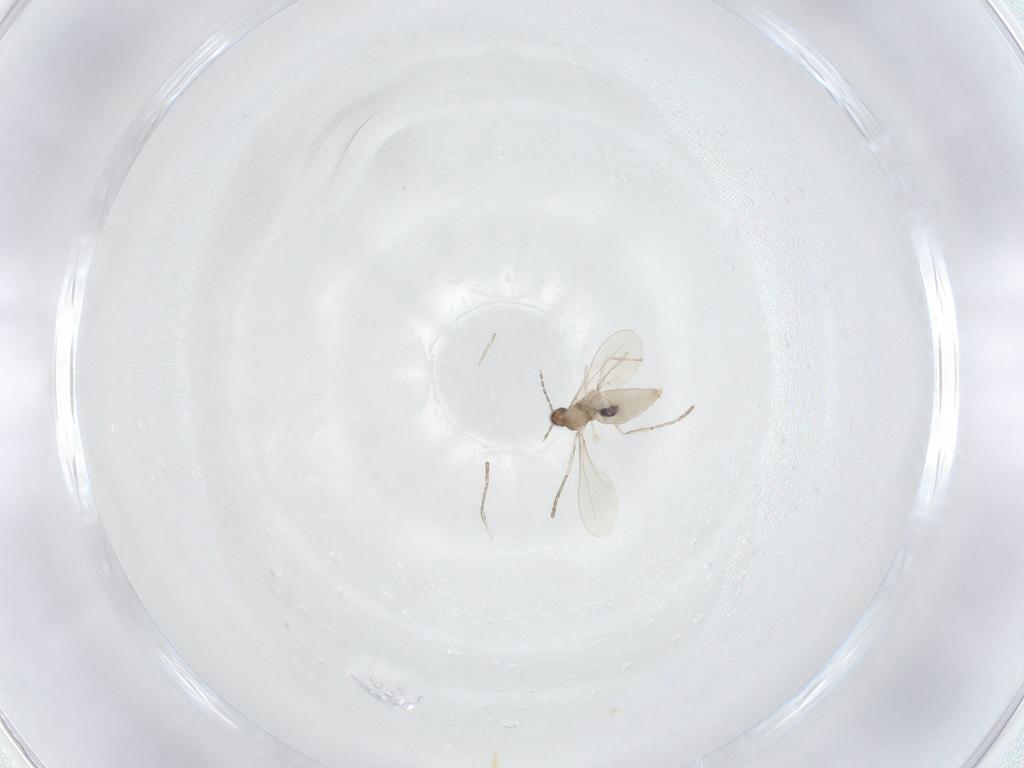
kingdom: Animalia
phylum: Arthropoda
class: Insecta
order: Diptera
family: Cecidomyiidae
